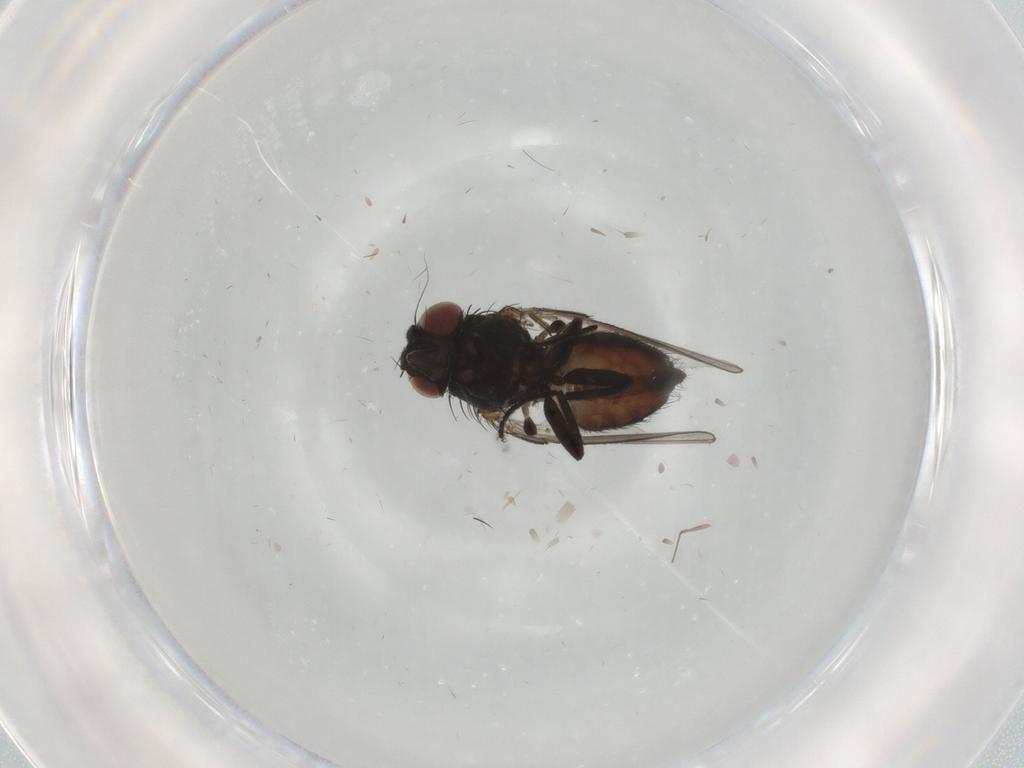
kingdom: Animalia
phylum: Arthropoda
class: Insecta
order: Diptera
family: Milichiidae
